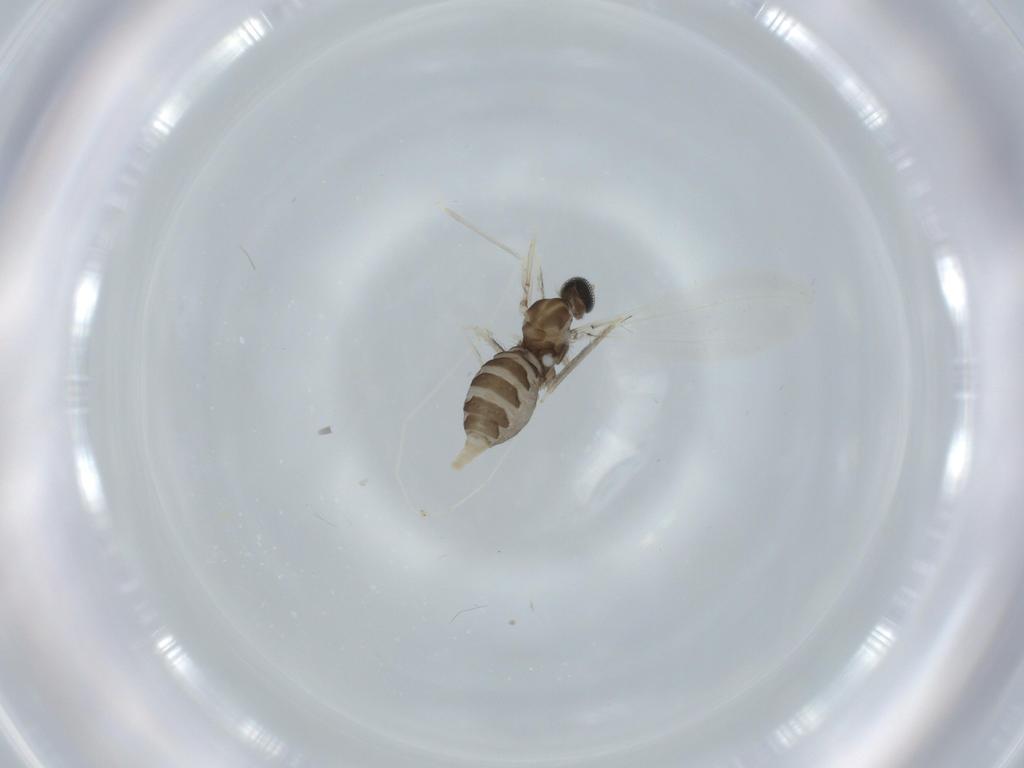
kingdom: Animalia
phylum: Arthropoda
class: Insecta
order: Diptera
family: Cecidomyiidae
